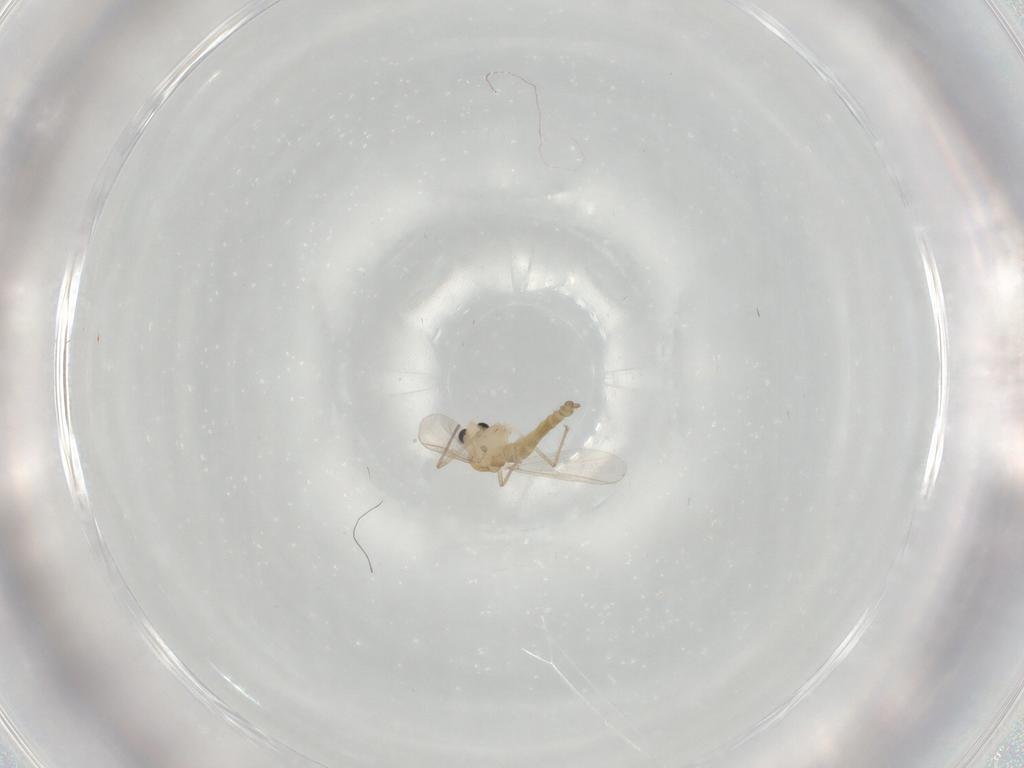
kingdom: Animalia
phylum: Arthropoda
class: Insecta
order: Diptera
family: Chironomidae
